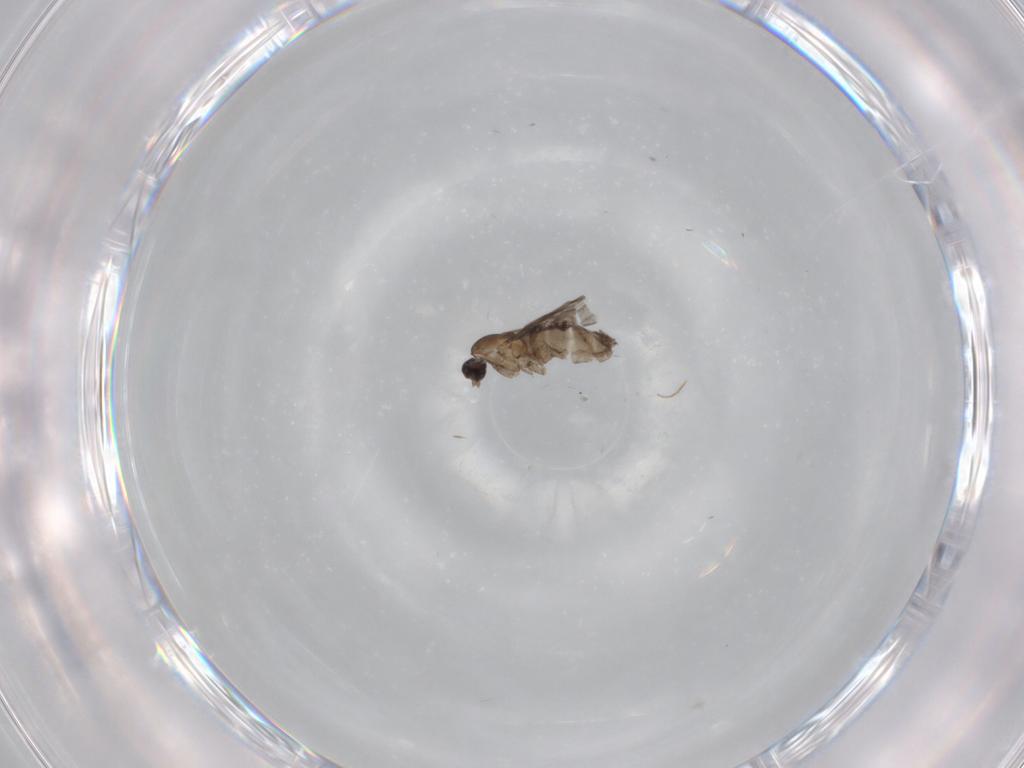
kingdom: Animalia
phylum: Arthropoda
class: Insecta
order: Diptera
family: Cecidomyiidae
